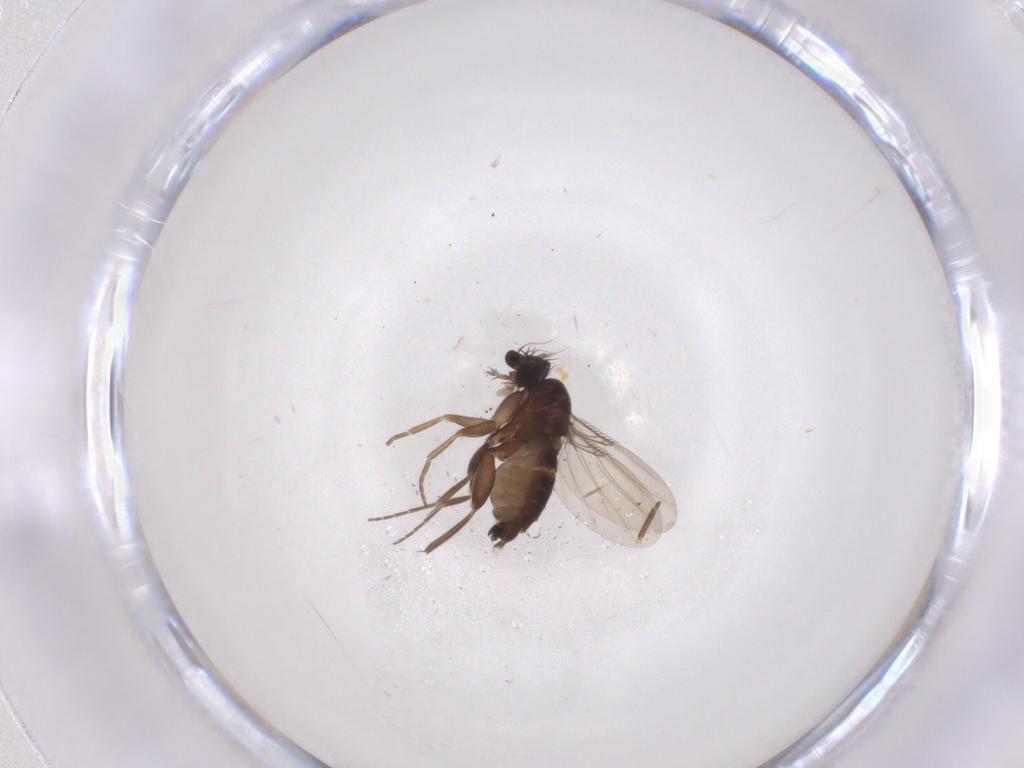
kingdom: Animalia
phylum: Arthropoda
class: Insecta
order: Diptera
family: Phoridae
